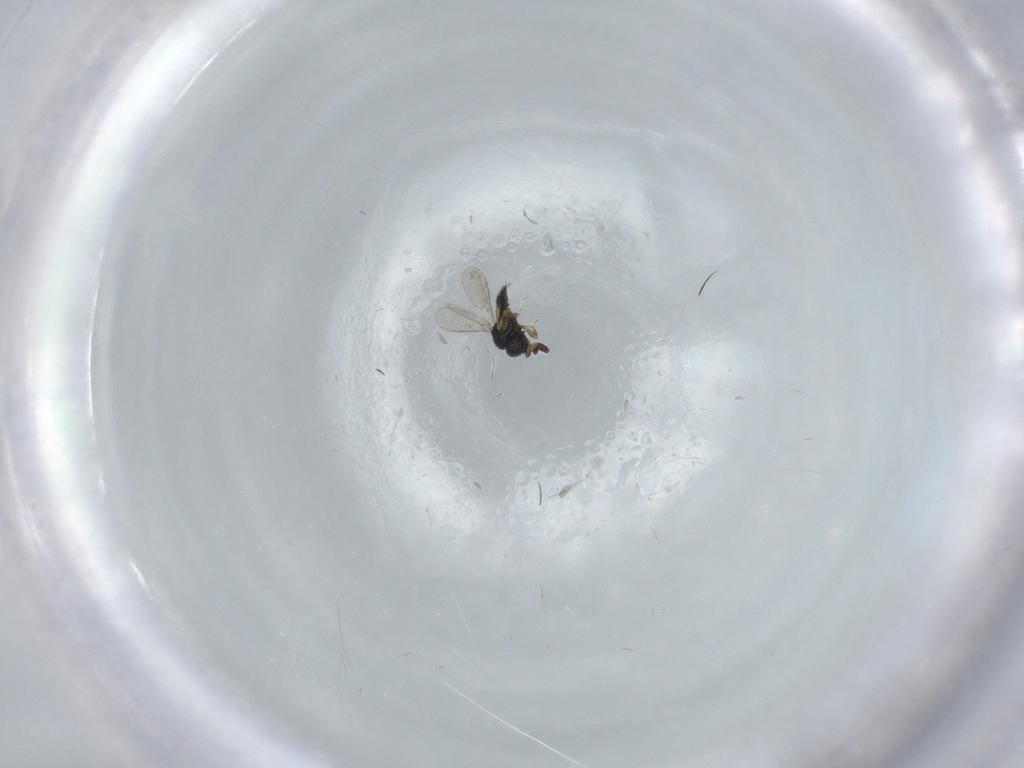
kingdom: Animalia
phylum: Arthropoda
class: Insecta
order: Hymenoptera
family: Scelionidae
